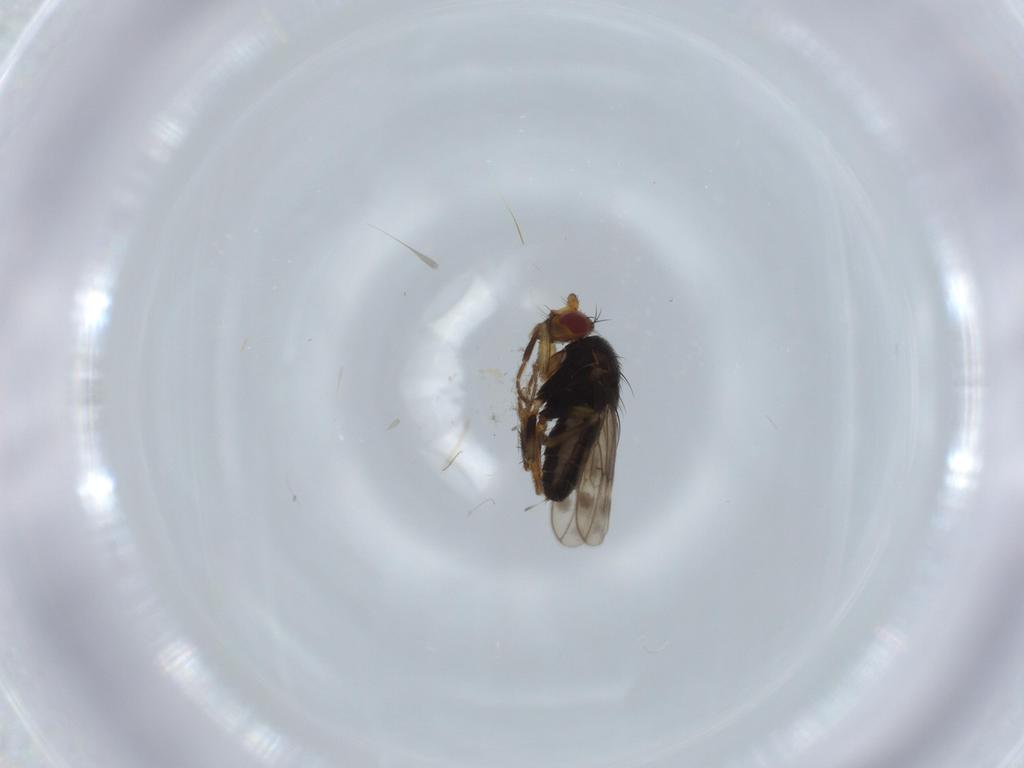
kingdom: Animalia
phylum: Arthropoda
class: Insecta
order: Diptera
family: Sphaeroceridae
